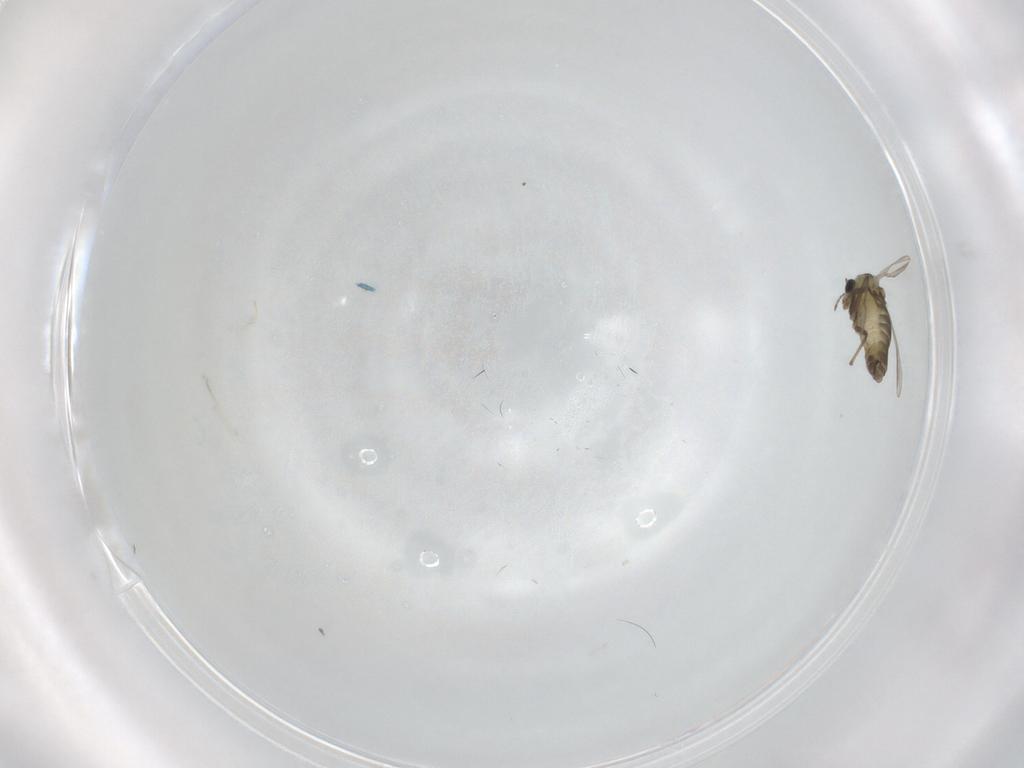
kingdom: Animalia
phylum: Arthropoda
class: Insecta
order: Diptera
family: Chironomidae
